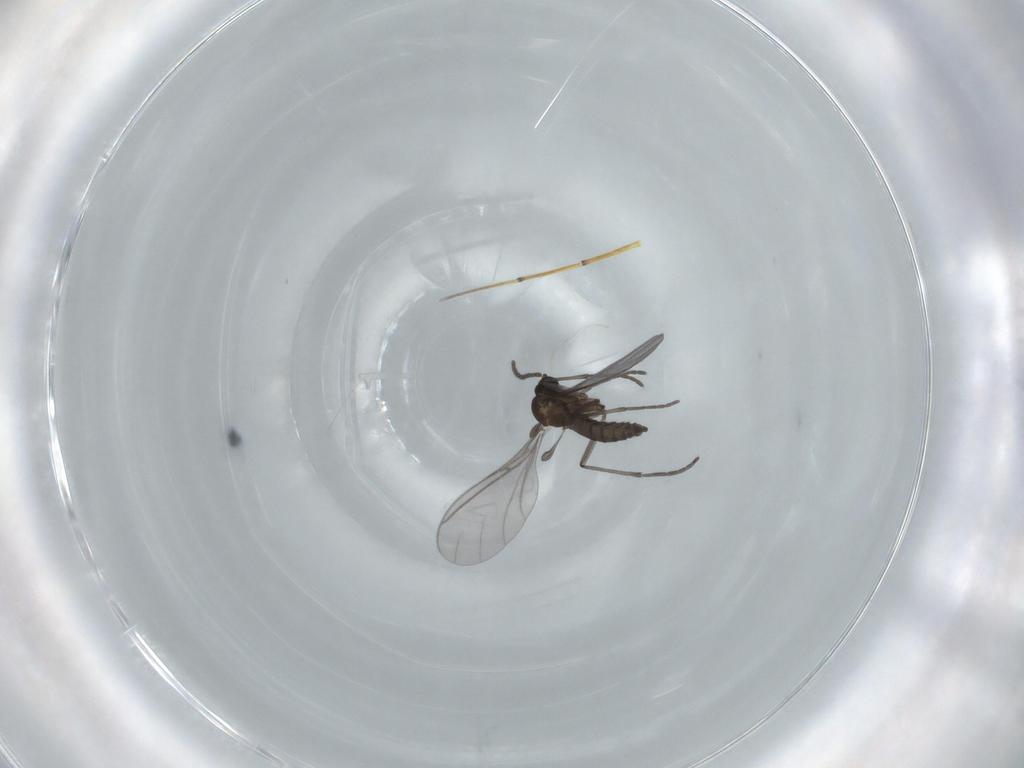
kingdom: Animalia
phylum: Arthropoda
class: Insecta
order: Diptera
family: Sciaridae
